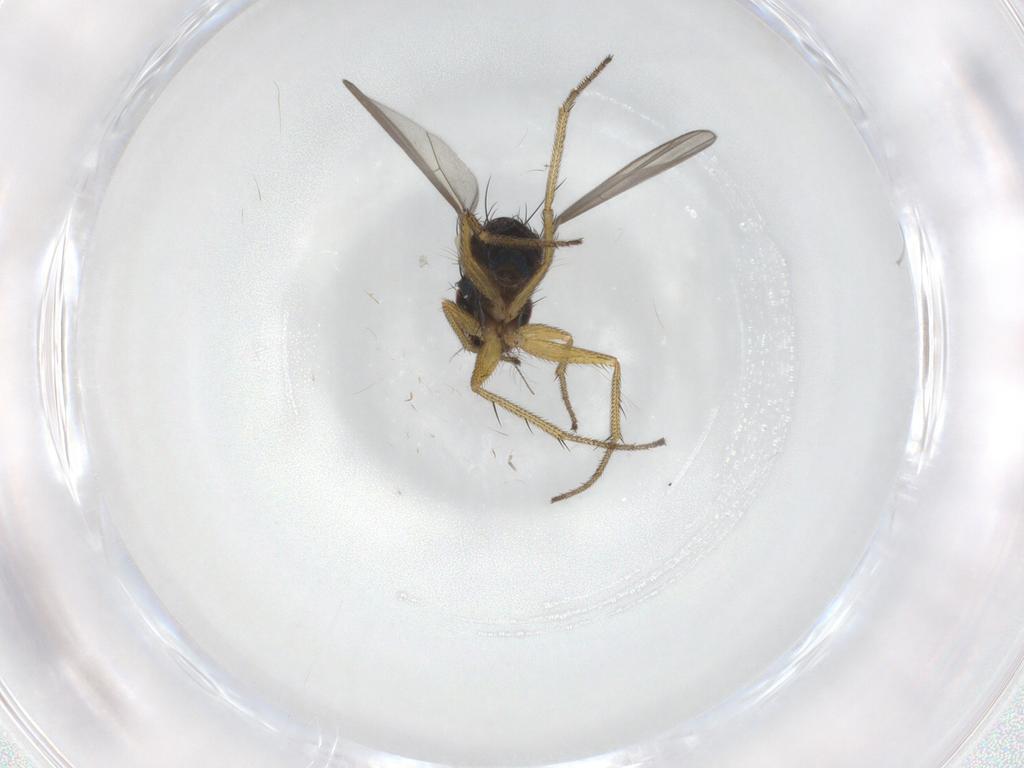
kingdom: Animalia
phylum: Arthropoda
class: Insecta
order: Diptera
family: Dolichopodidae
